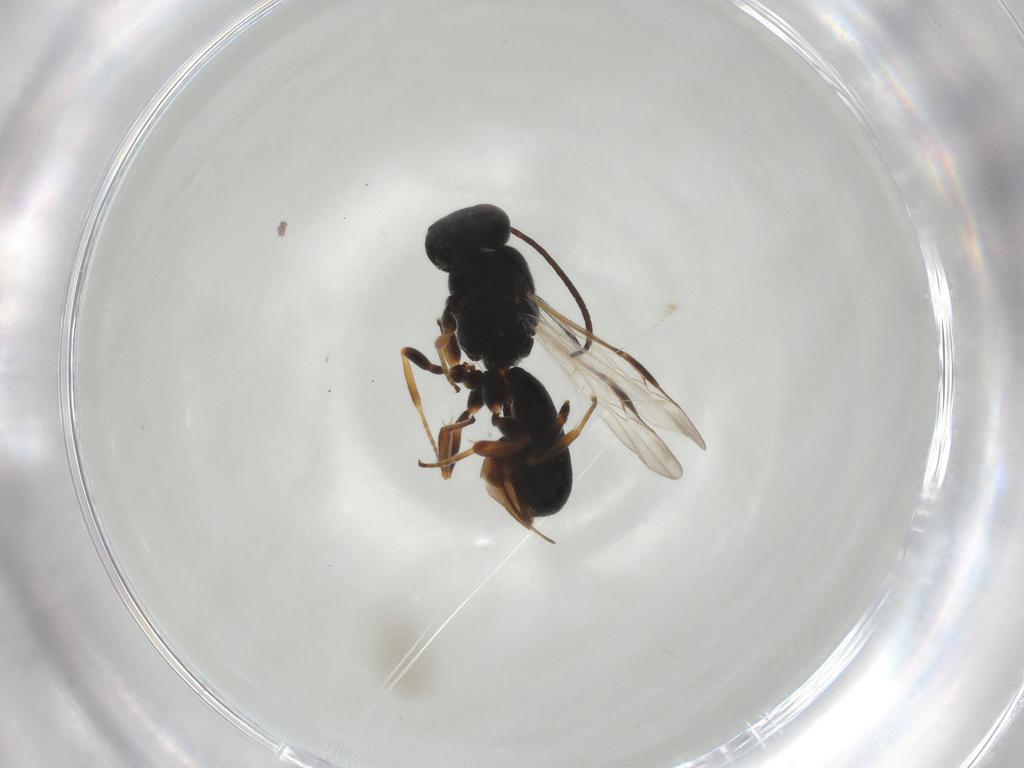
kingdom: Animalia
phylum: Arthropoda
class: Insecta
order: Hymenoptera
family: Braconidae
